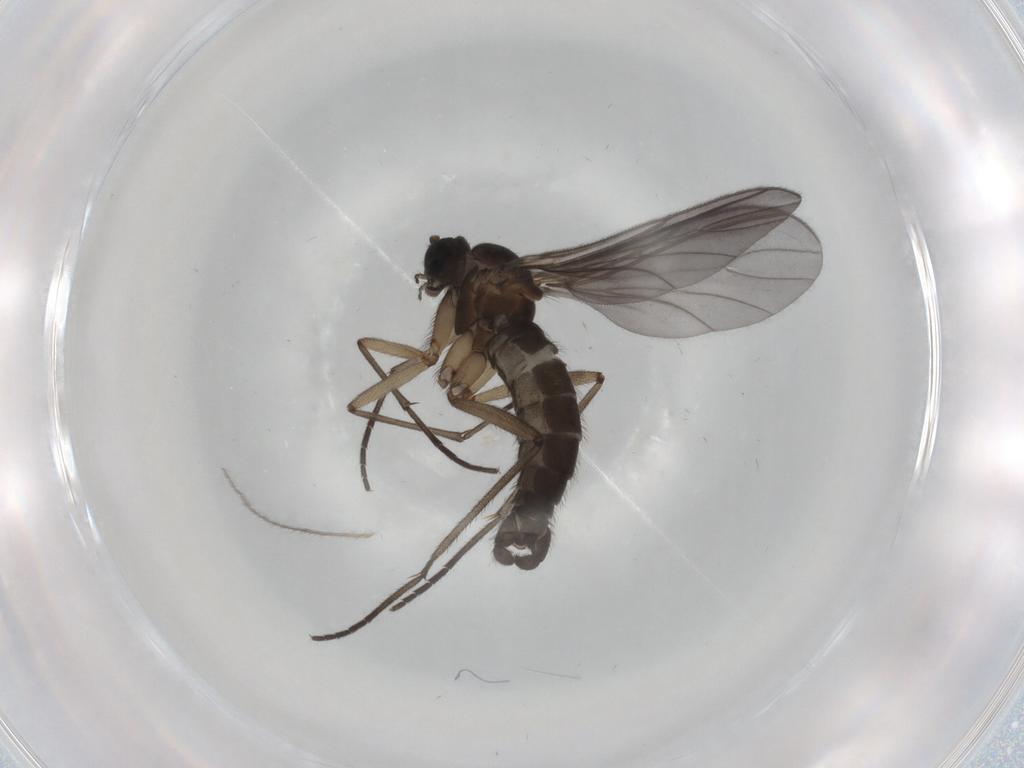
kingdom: Animalia
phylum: Arthropoda
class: Insecta
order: Diptera
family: Sciaridae
